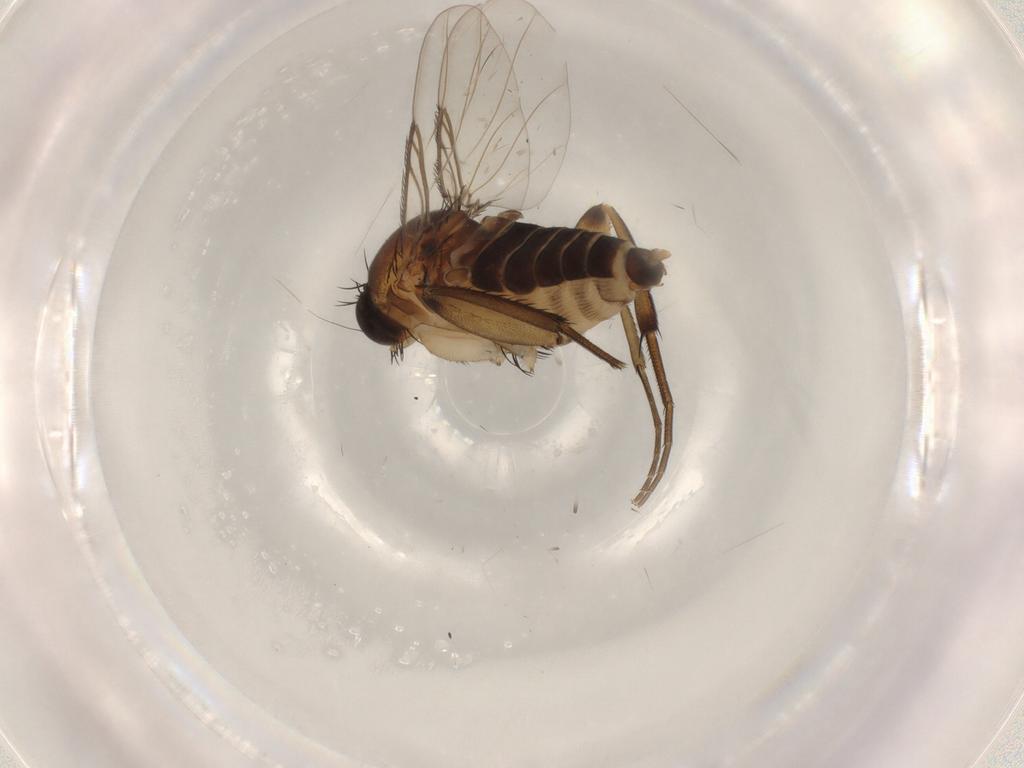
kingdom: Animalia
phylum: Arthropoda
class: Insecta
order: Diptera
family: Phoridae
